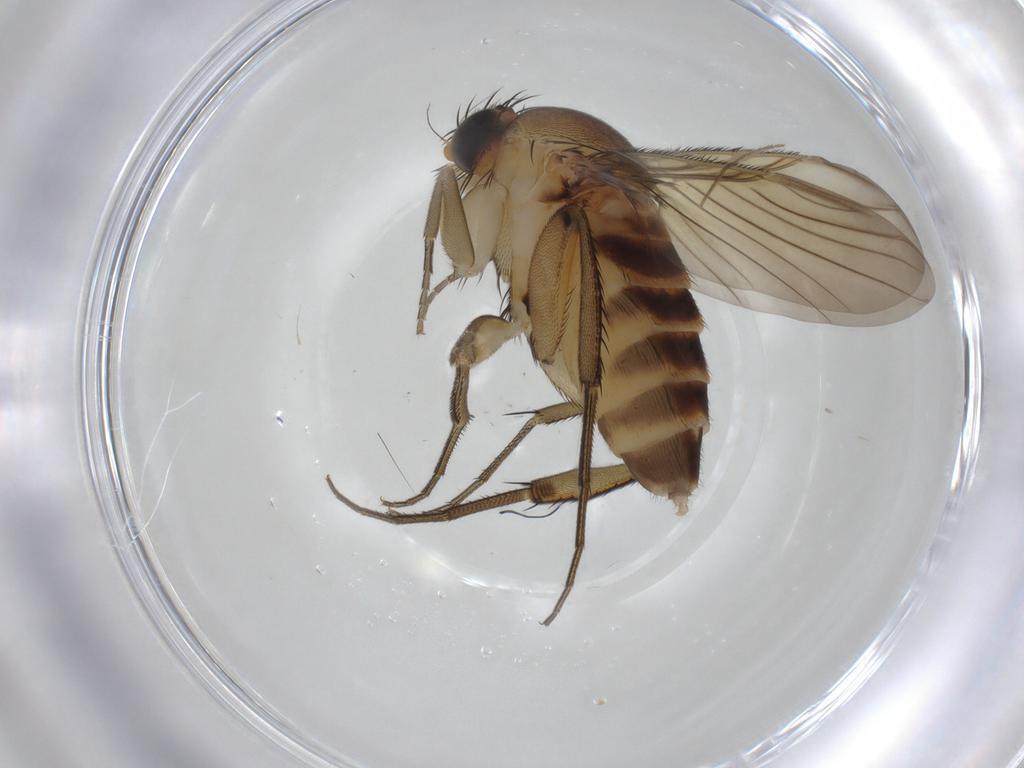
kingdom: Animalia
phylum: Arthropoda
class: Insecta
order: Diptera
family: Chironomidae
